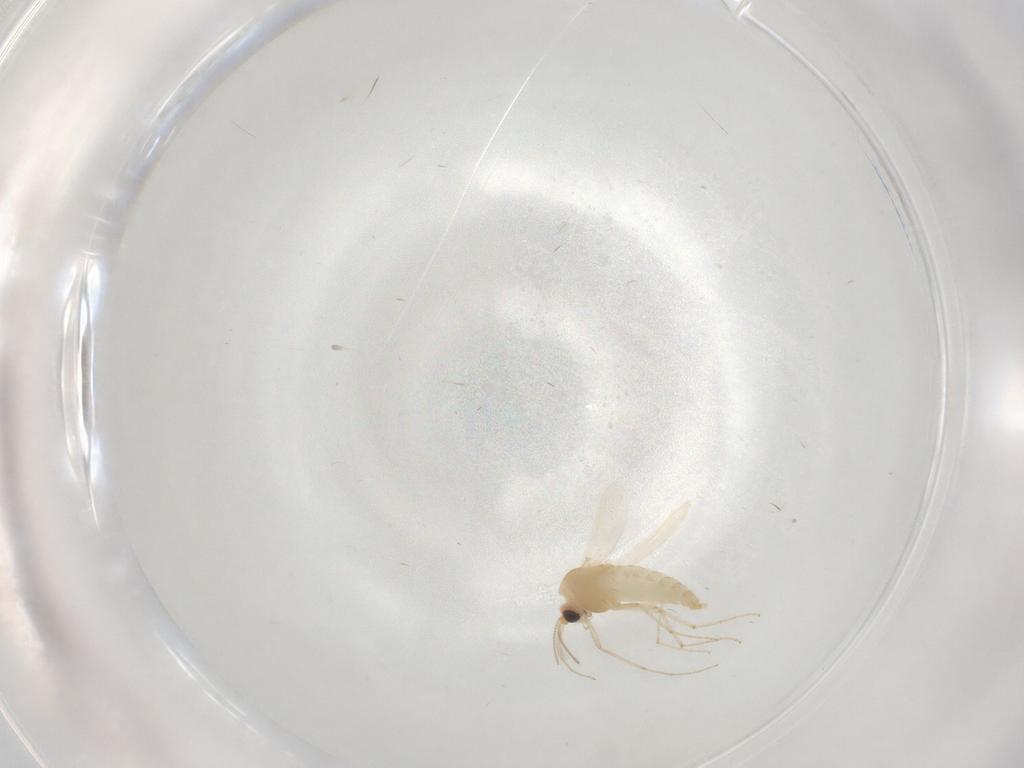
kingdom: Animalia
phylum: Arthropoda
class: Insecta
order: Diptera
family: Chironomidae
